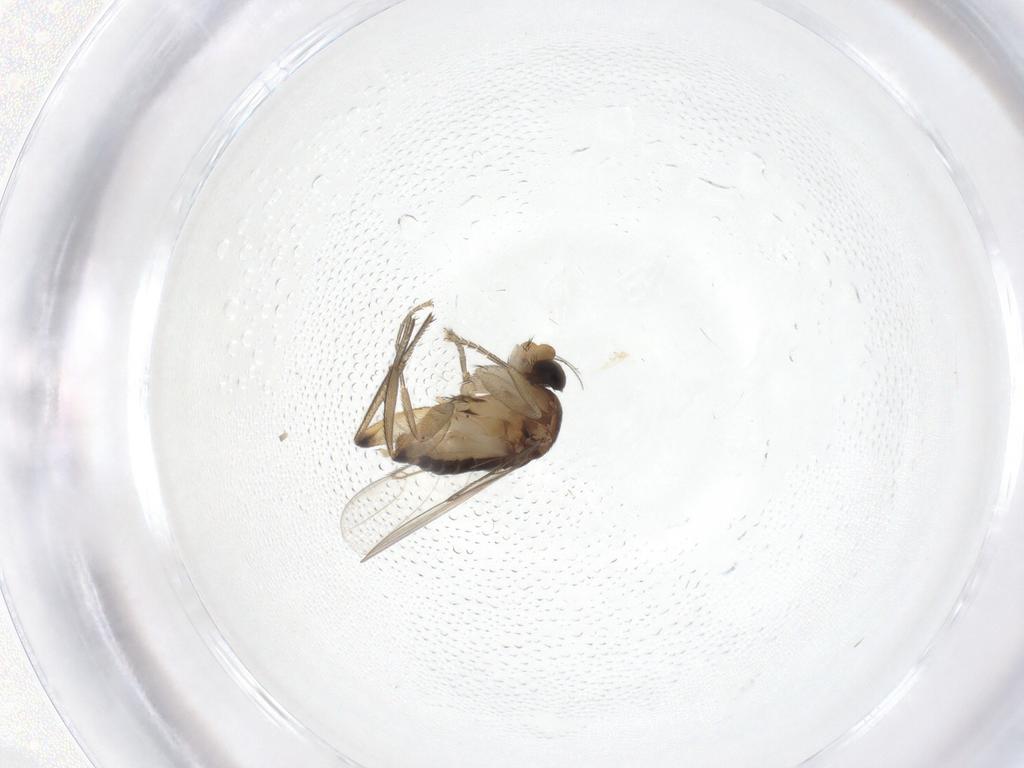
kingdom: Animalia
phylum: Arthropoda
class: Insecta
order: Diptera
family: Phoridae
